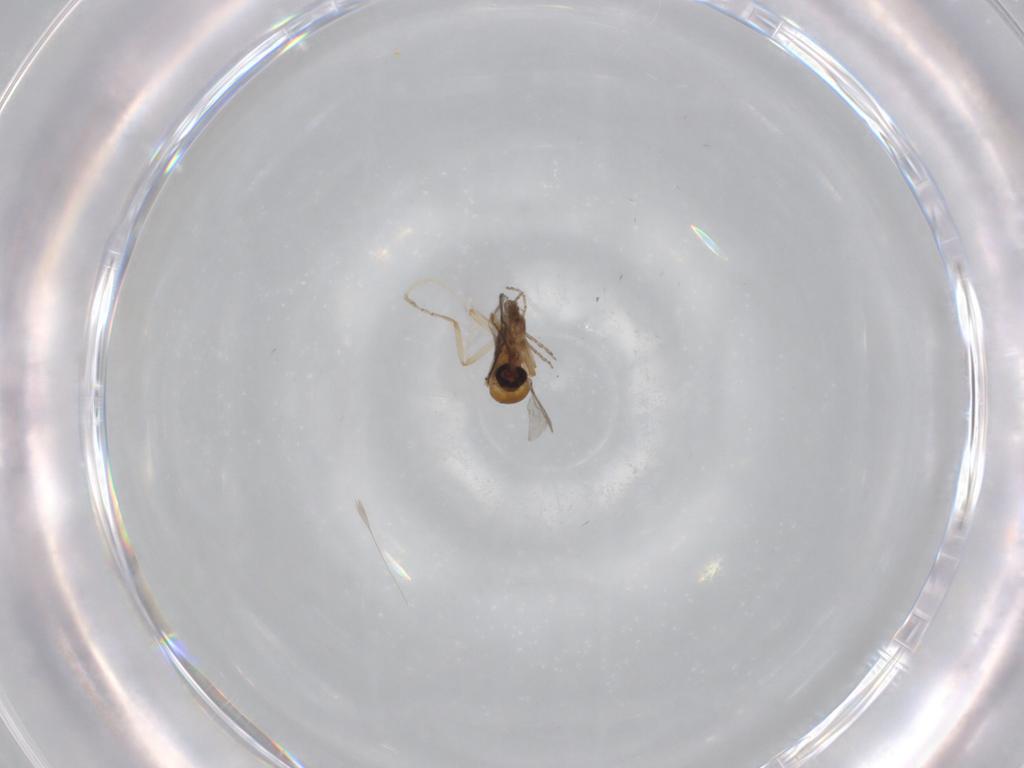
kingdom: Animalia
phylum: Arthropoda
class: Insecta
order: Diptera
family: Ceratopogonidae
